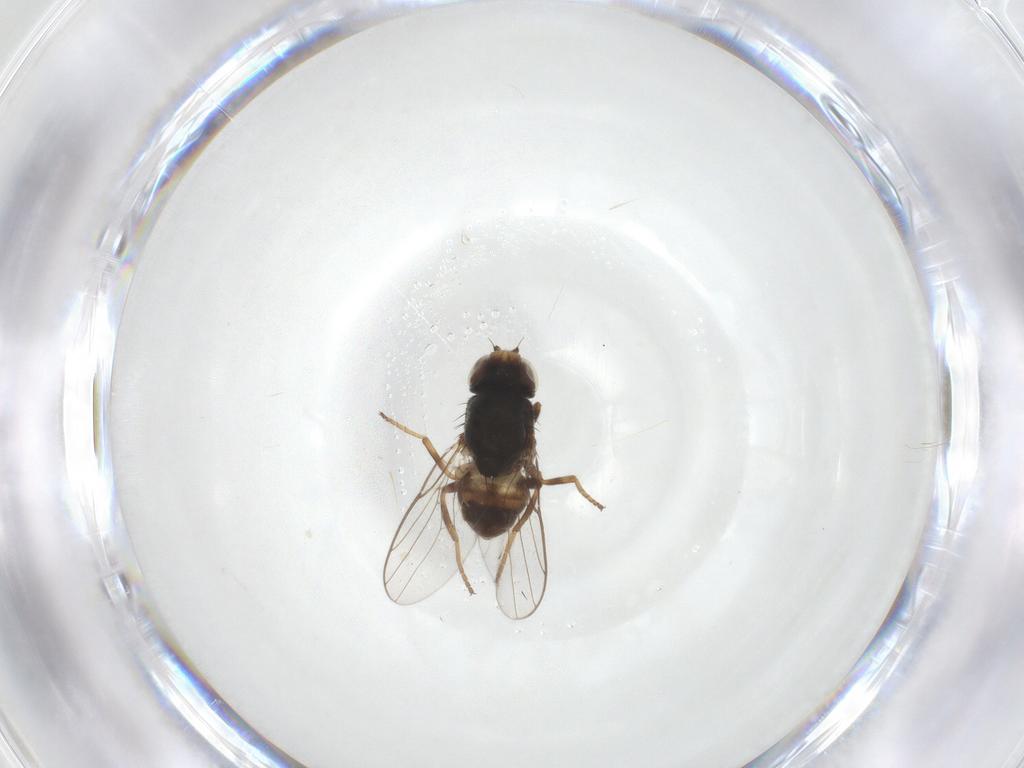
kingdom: Animalia
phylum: Arthropoda
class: Insecta
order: Diptera
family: Chloropidae
